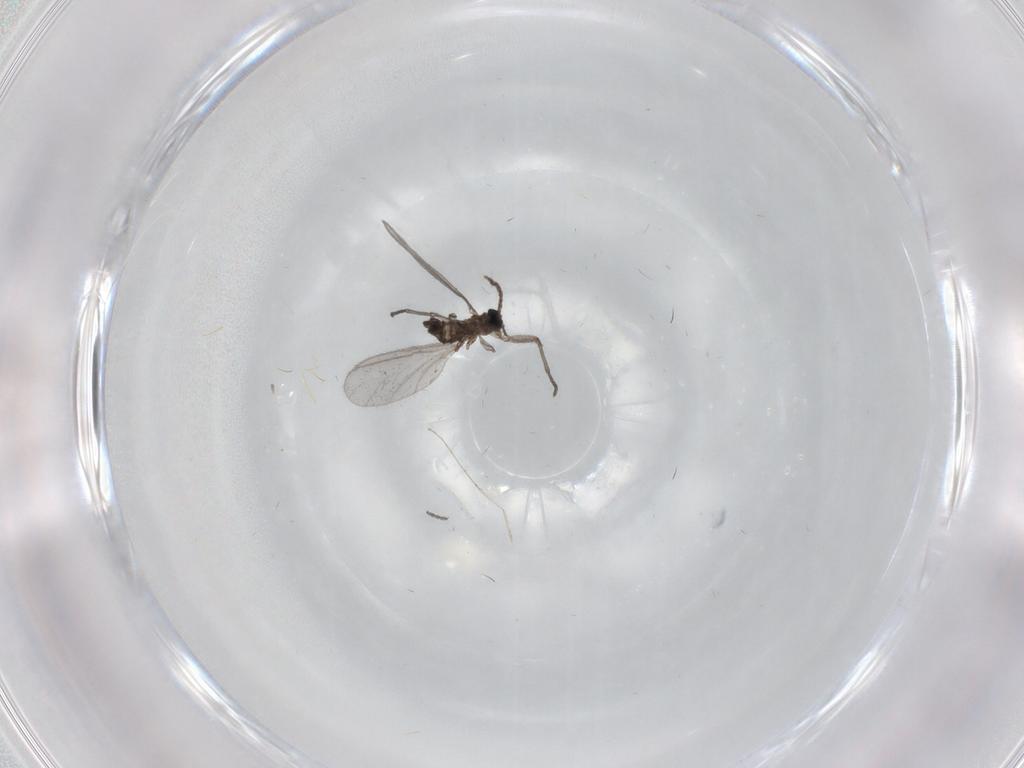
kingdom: Animalia
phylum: Arthropoda
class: Insecta
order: Diptera
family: Sciaridae
